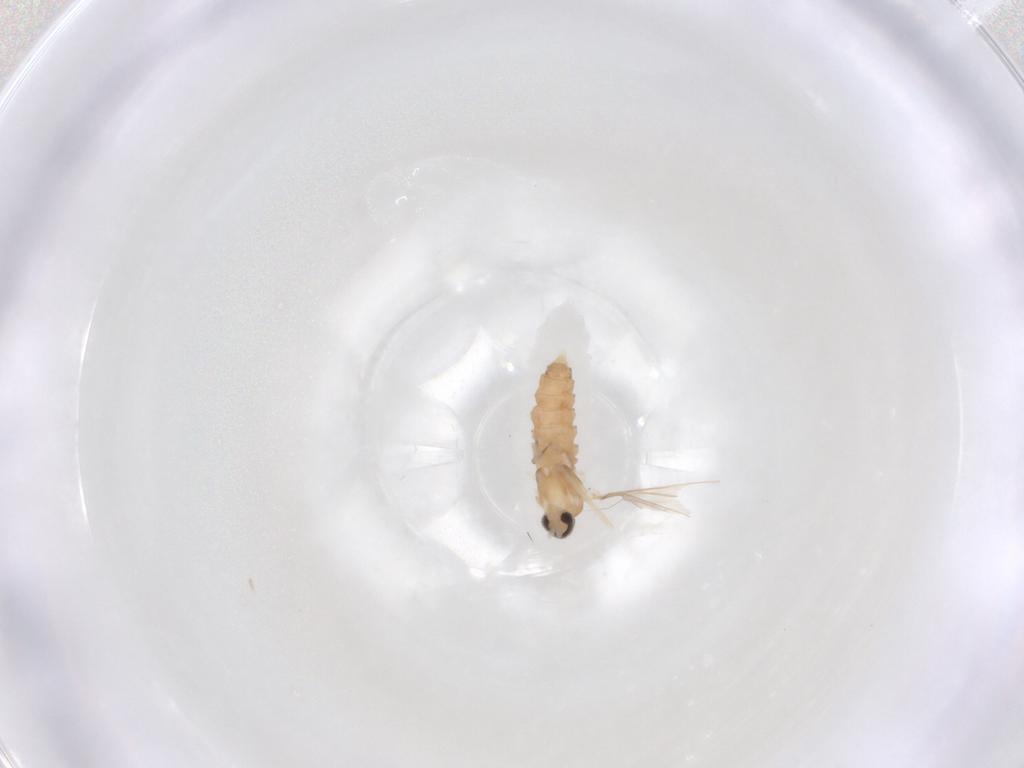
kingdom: Animalia
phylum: Arthropoda
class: Insecta
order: Diptera
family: Cecidomyiidae
